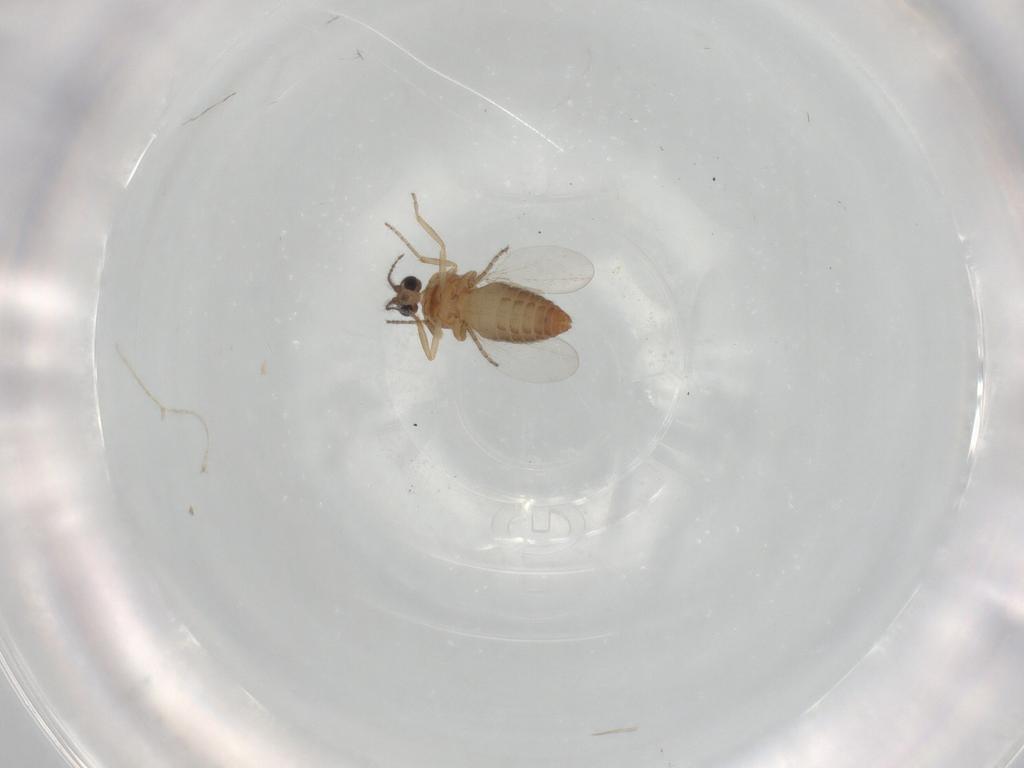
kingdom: Animalia
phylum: Arthropoda
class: Insecta
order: Diptera
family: Ceratopogonidae
